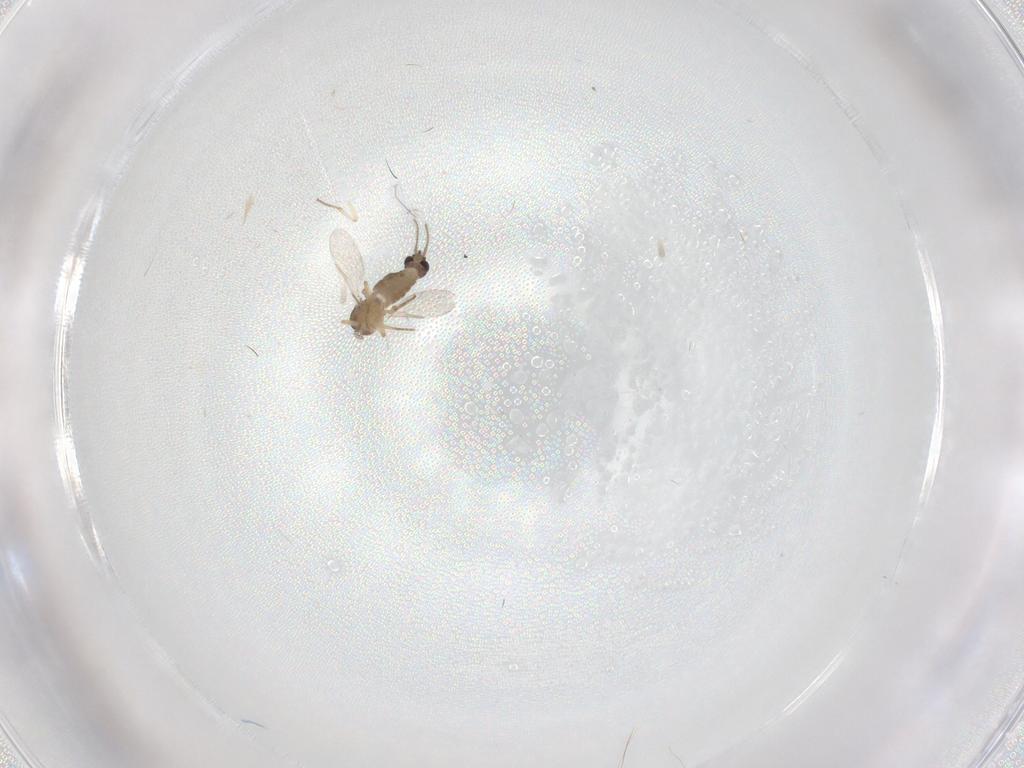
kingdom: Animalia
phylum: Arthropoda
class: Insecta
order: Diptera
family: Ceratopogonidae
